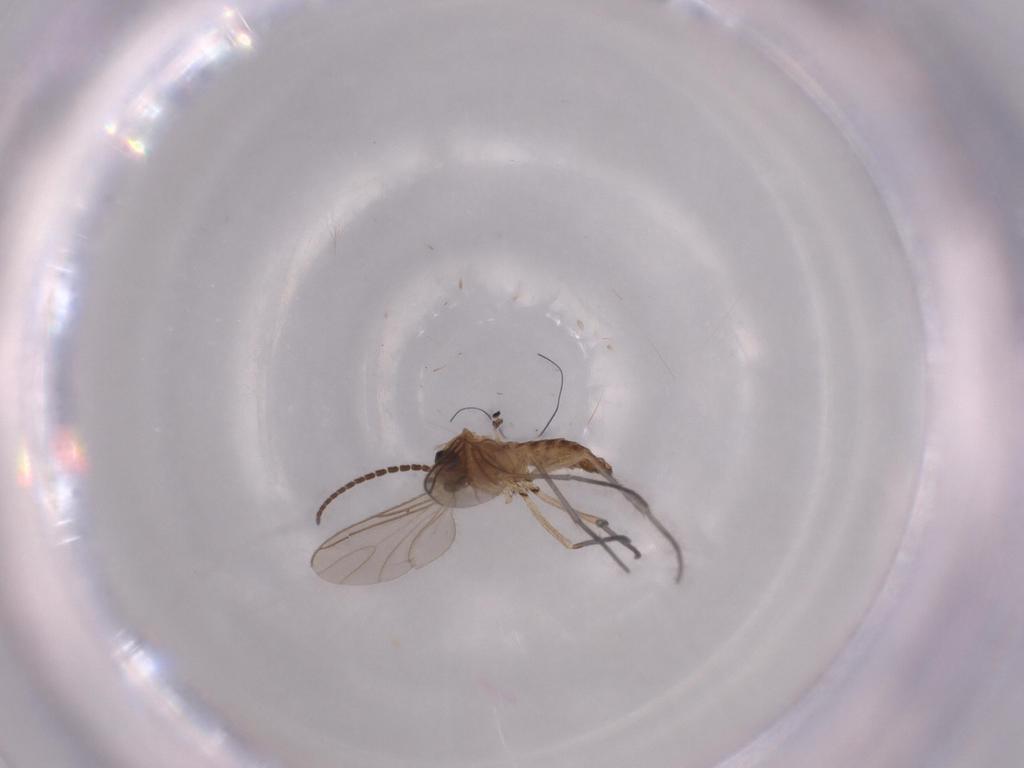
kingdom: Animalia
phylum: Arthropoda
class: Insecta
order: Diptera
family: Sciaridae
